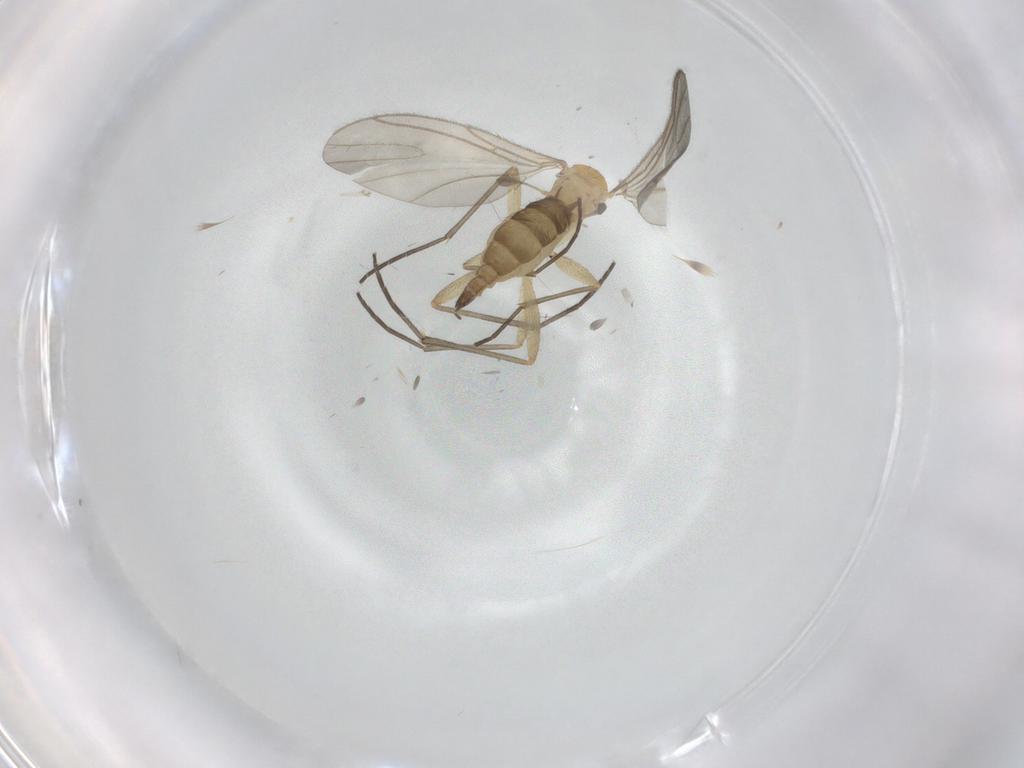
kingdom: Animalia
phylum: Arthropoda
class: Insecta
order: Diptera
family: Sciaridae
